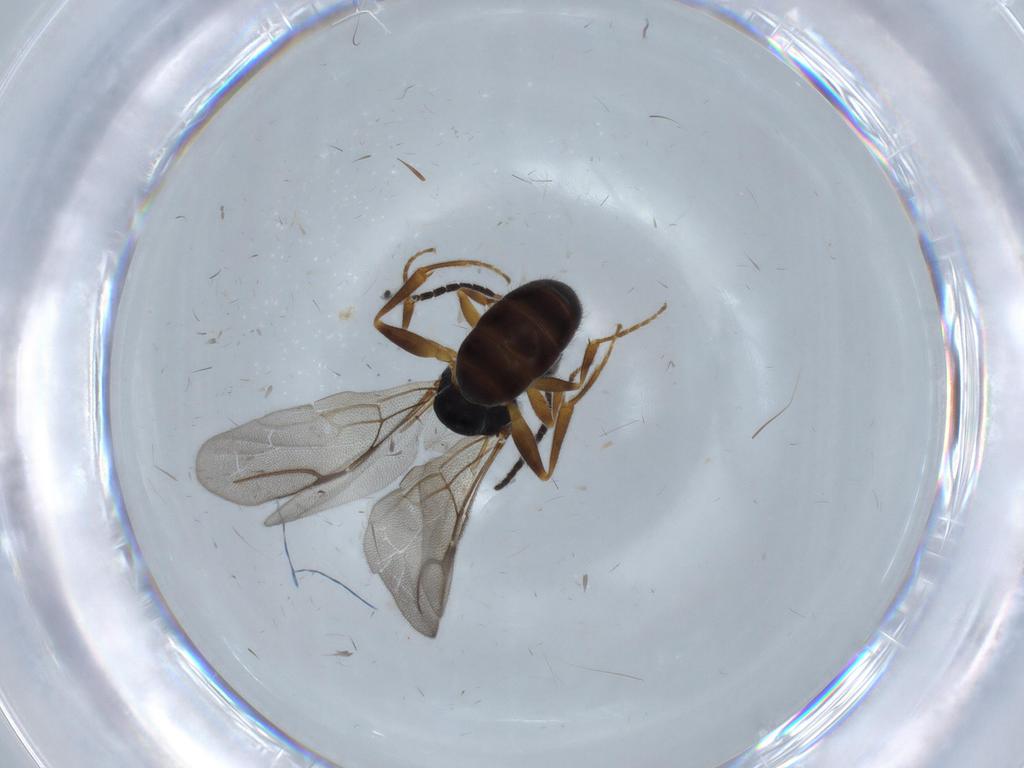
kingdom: Animalia
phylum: Arthropoda
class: Insecta
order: Hymenoptera
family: Bethylidae
